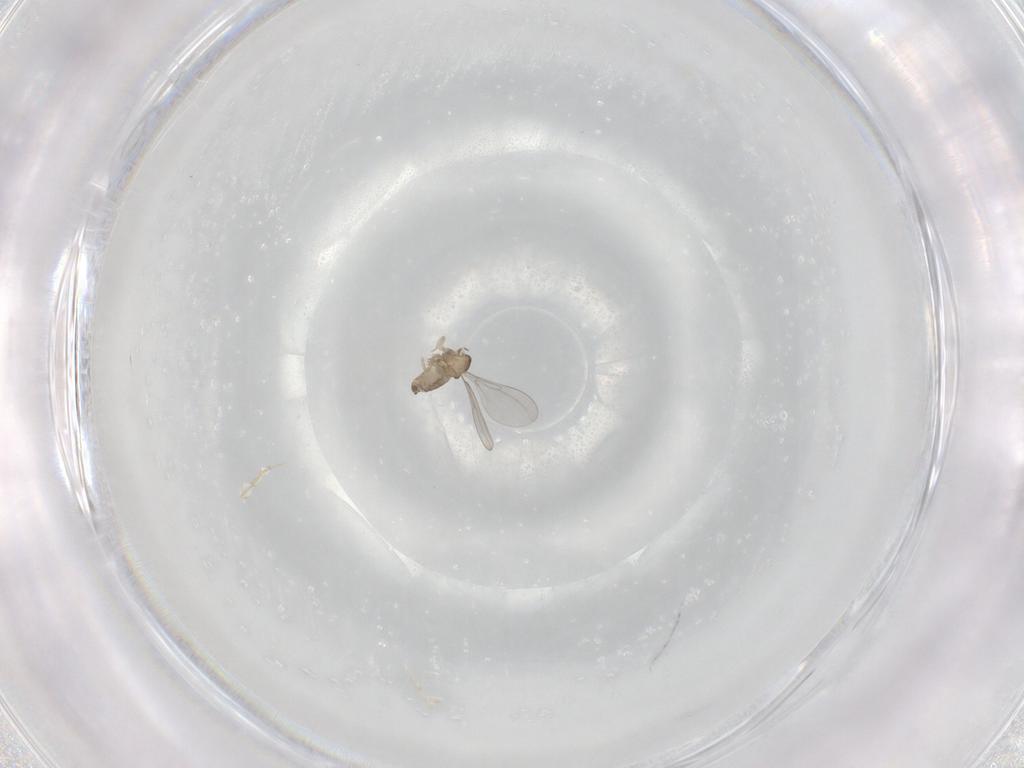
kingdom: Animalia
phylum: Arthropoda
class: Insecta
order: Diptera
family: Cecidomyiidae
